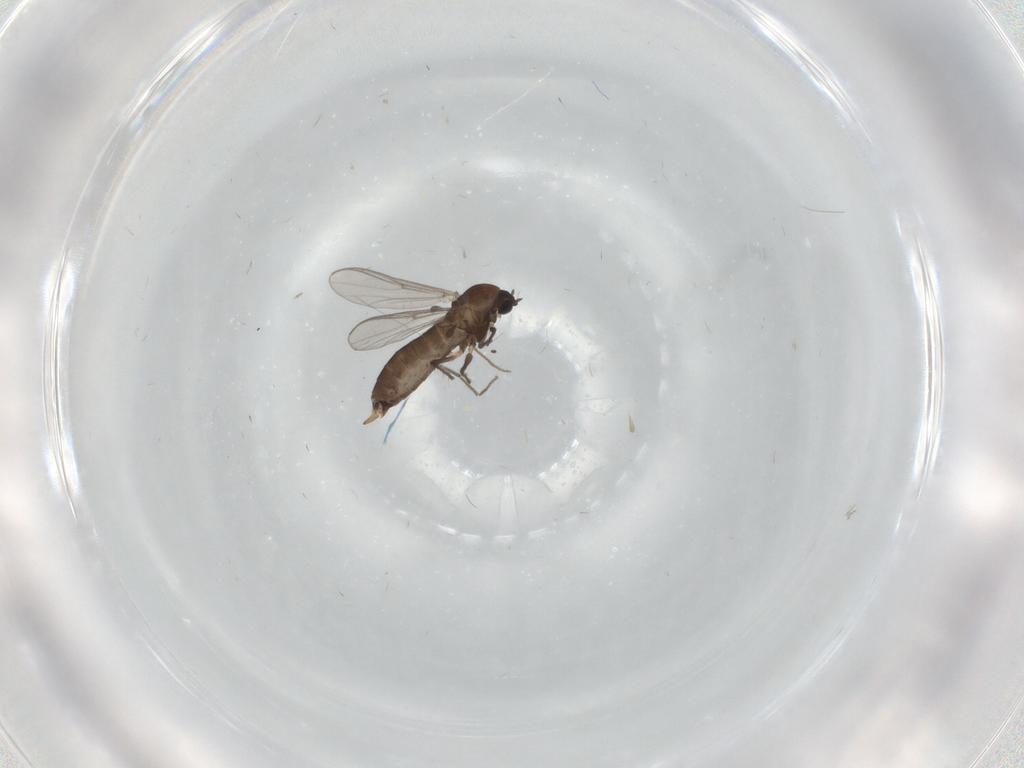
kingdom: Animalia
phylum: Arthropoda
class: Insecta
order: Diptera
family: Chironomidae
